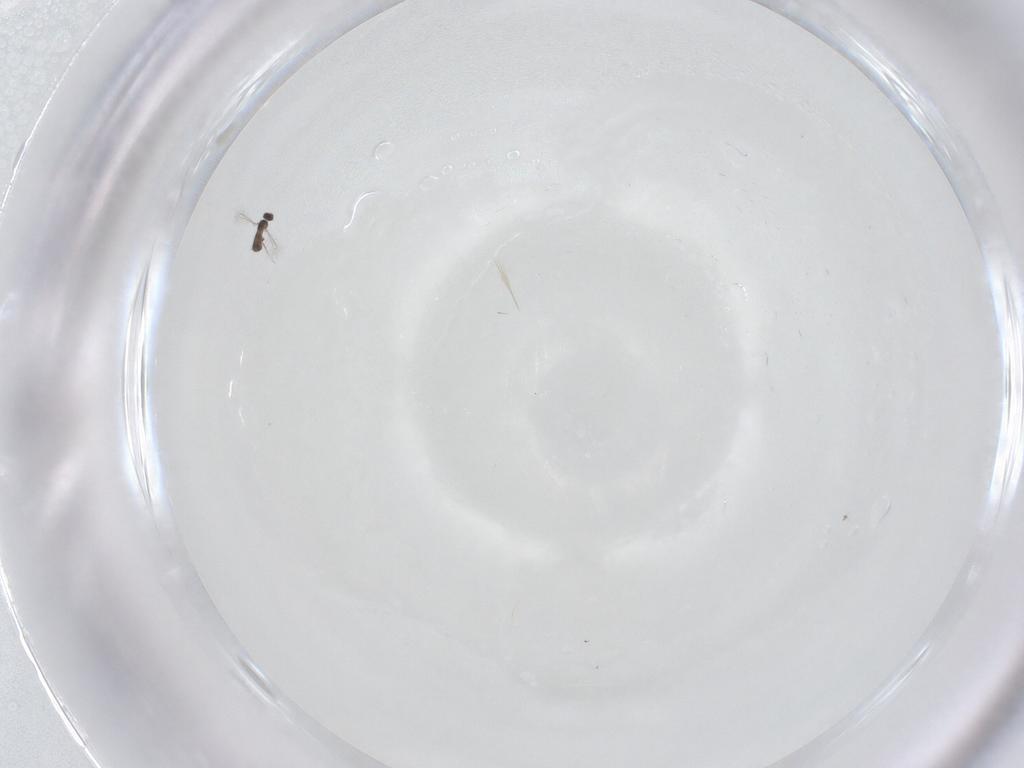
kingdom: Animalia
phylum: Arthropoda
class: Insecta
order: Hymenoptera
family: Mymaridae
